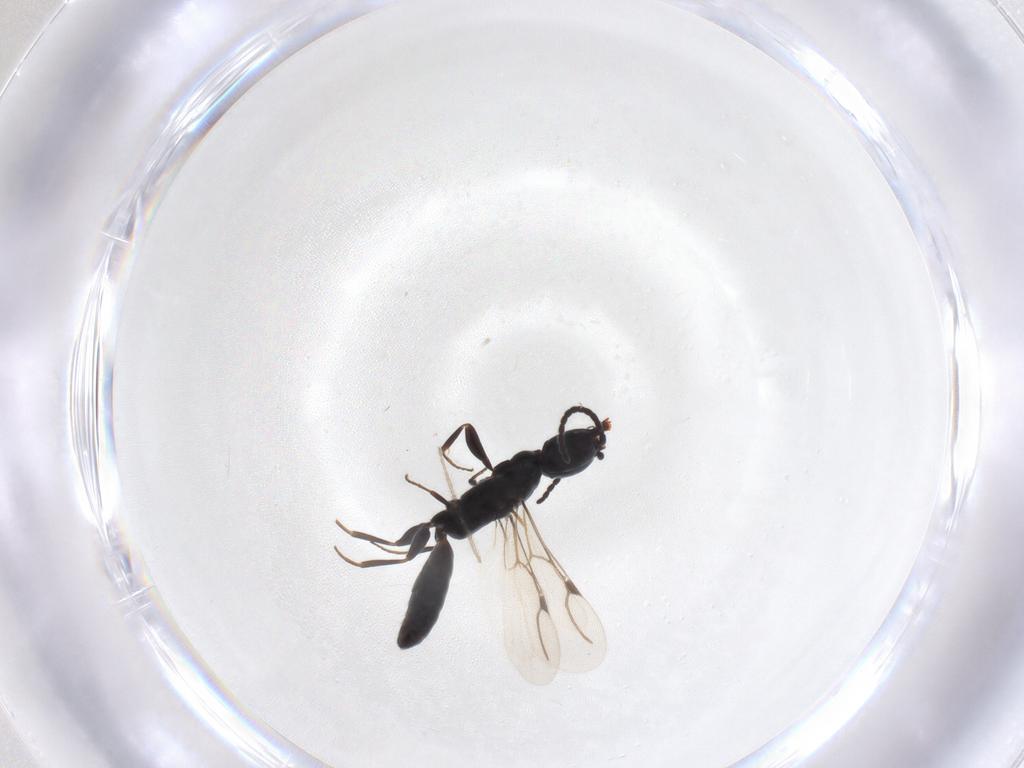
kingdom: Animalia
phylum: Arthropoda
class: Insecta
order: Hymenoptera
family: Bethylidae
